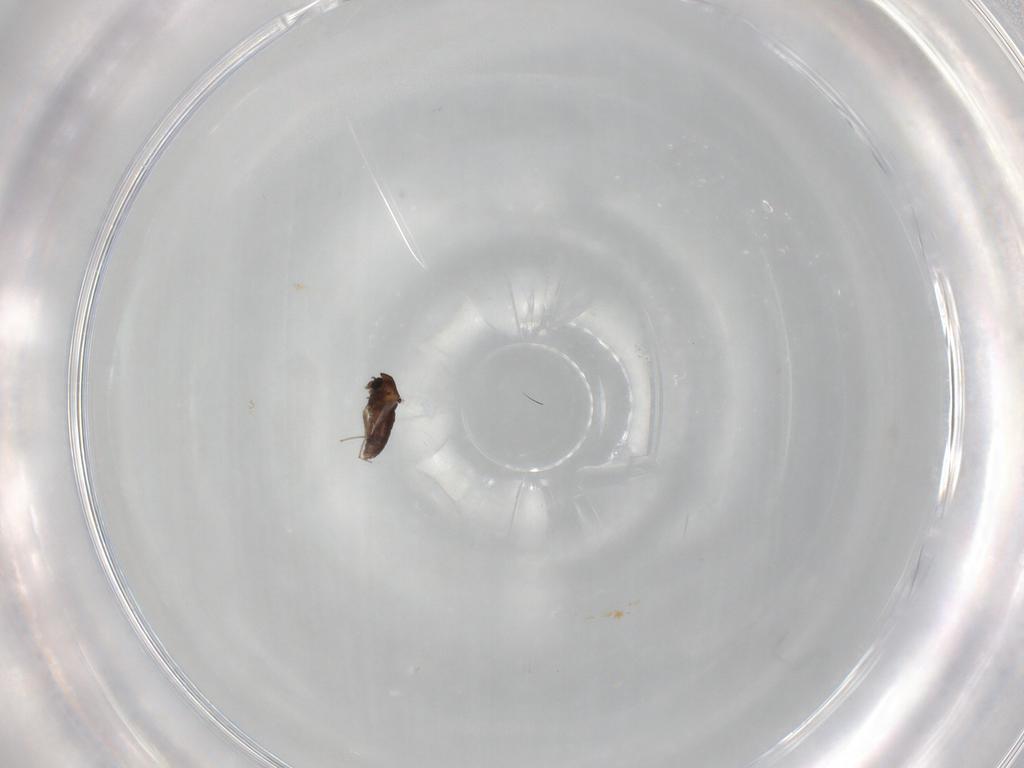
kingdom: Animalia
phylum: Arthropoda
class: Insecta
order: Diptera
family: Chironomidae
